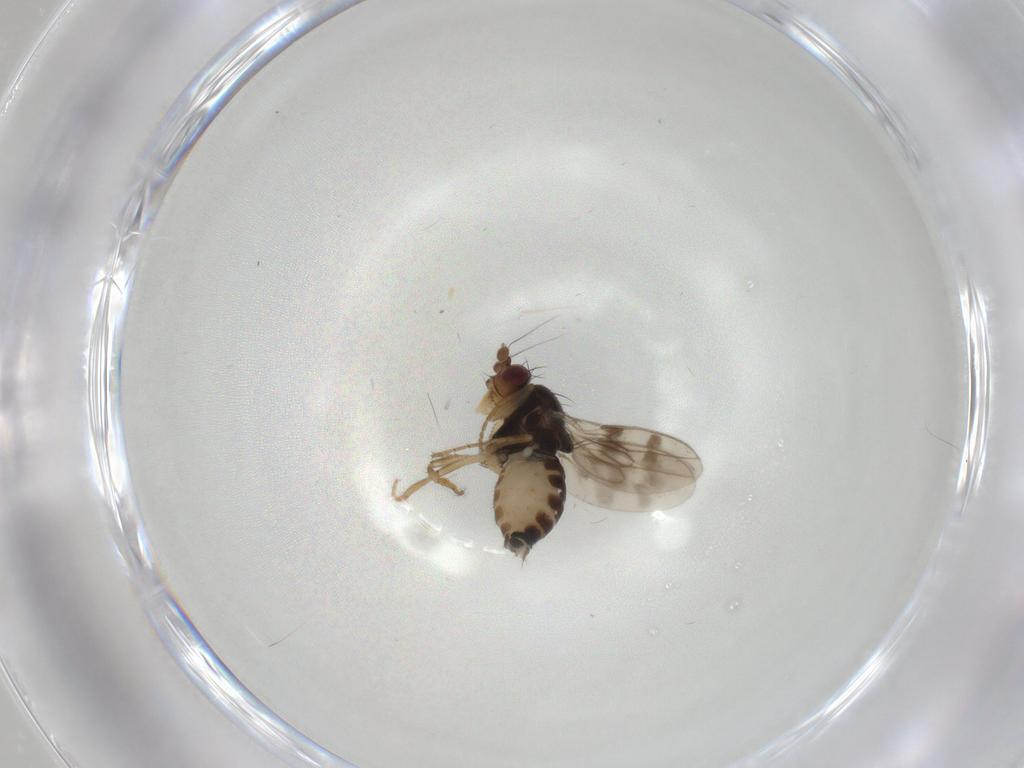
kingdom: Animalia
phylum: Arthropoda
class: Insecta
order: Diptera
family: Sphaeroceridae
